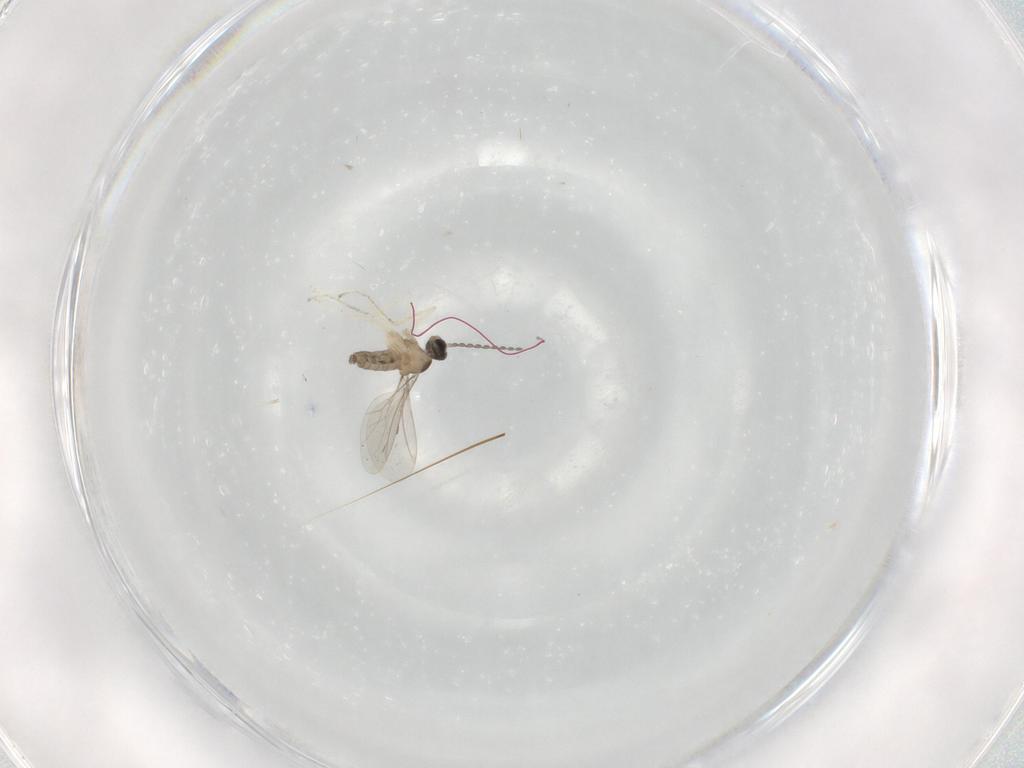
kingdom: Animalia
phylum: Arthropoda
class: Insecta
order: Diptera
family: Cecidomyiidae
